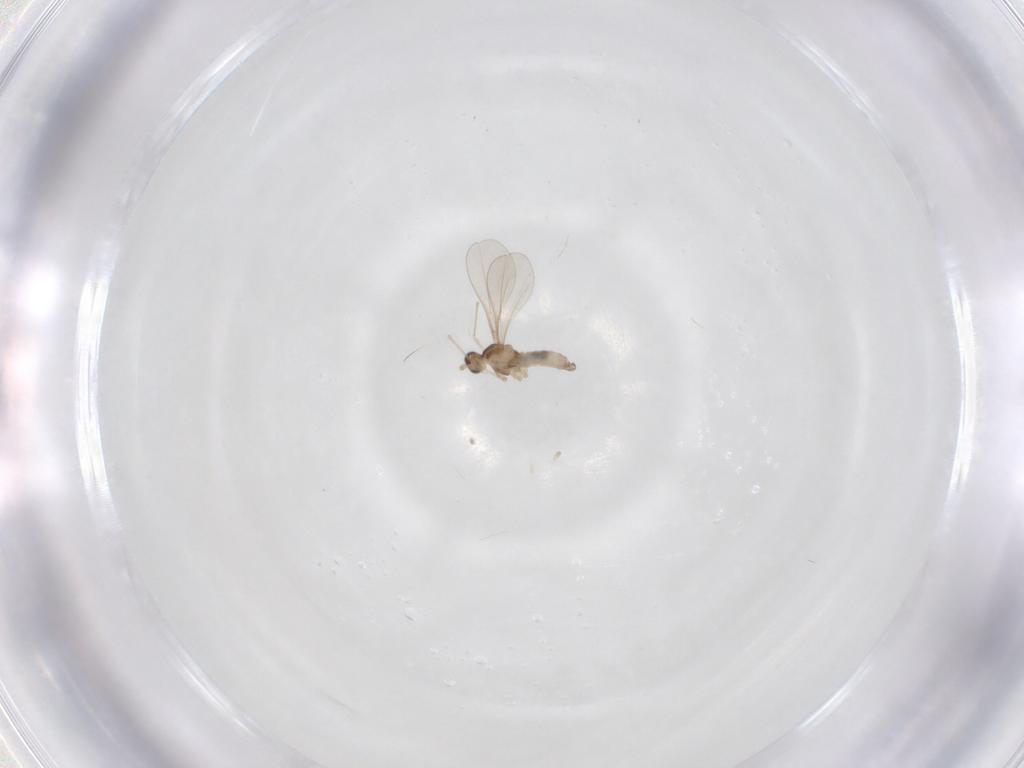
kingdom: Animalia
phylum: Arthropoda
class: Insecta
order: Diptera
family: Cecidomyiidae
